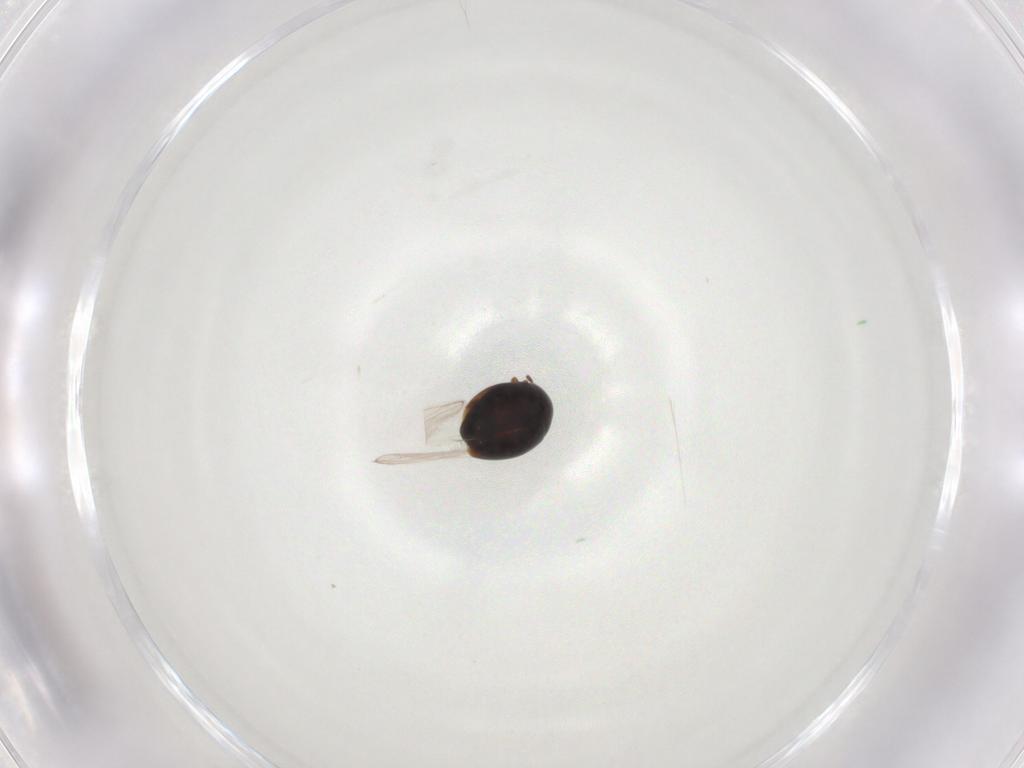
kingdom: Animalia
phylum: Arthropoda
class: Insecta
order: Coleoptera
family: Corylophidae
